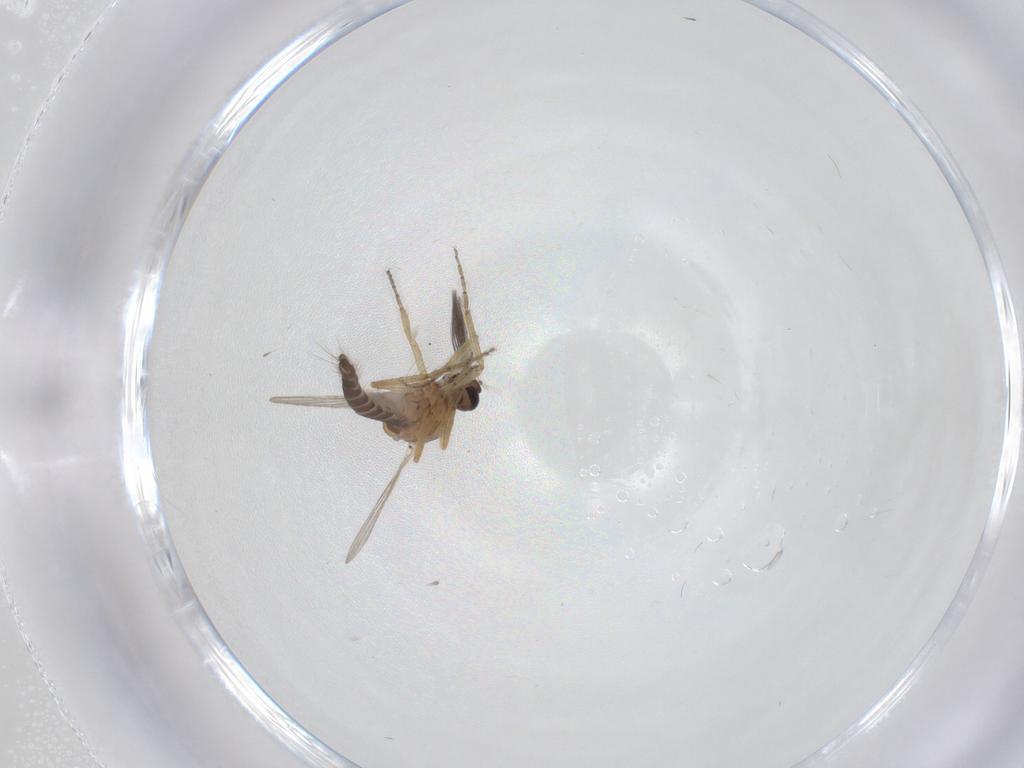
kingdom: Animalia
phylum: Arthropoda
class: Insecta
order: Diptera
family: Ceratopogonidae
